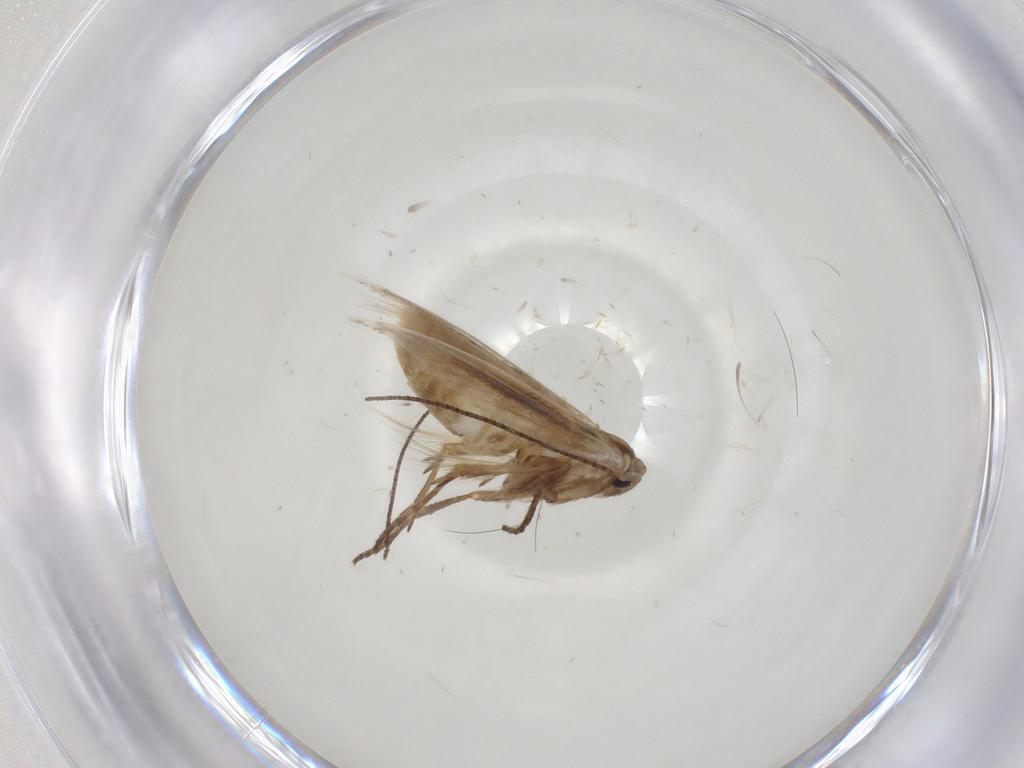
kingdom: Animalia
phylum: Arthropoda
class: Insecta
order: Lepidoptera
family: Bucculatricidae
